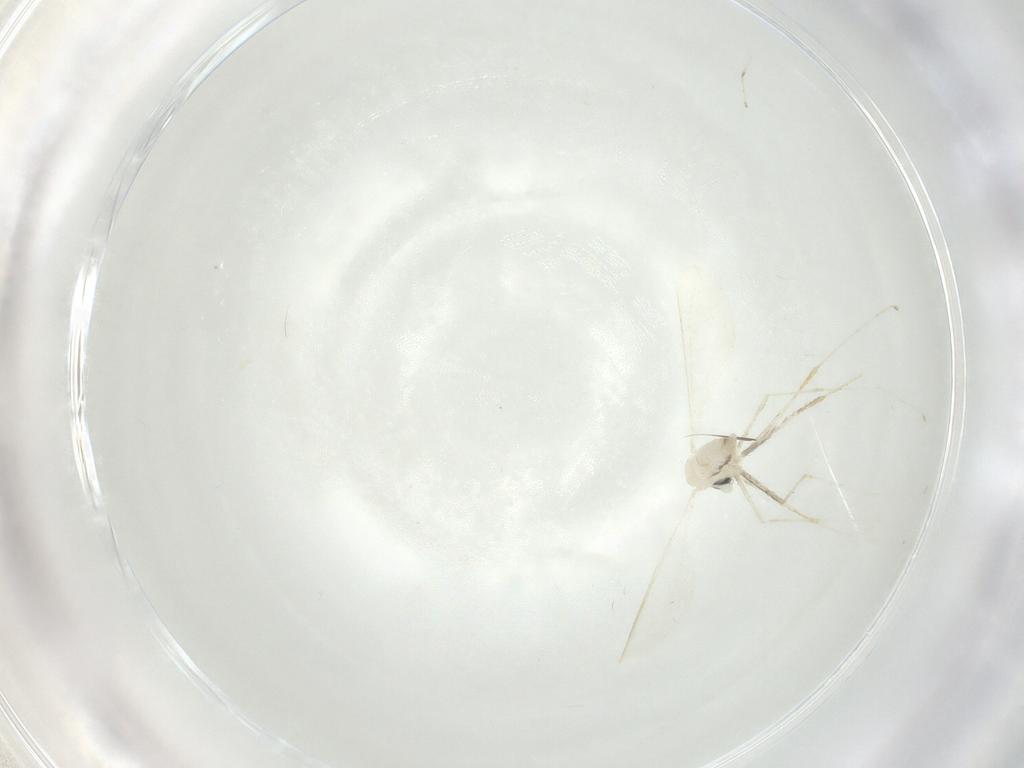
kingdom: Animalia
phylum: Arthropoda
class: Insecta
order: Diptera
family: Cecidomyiidae
